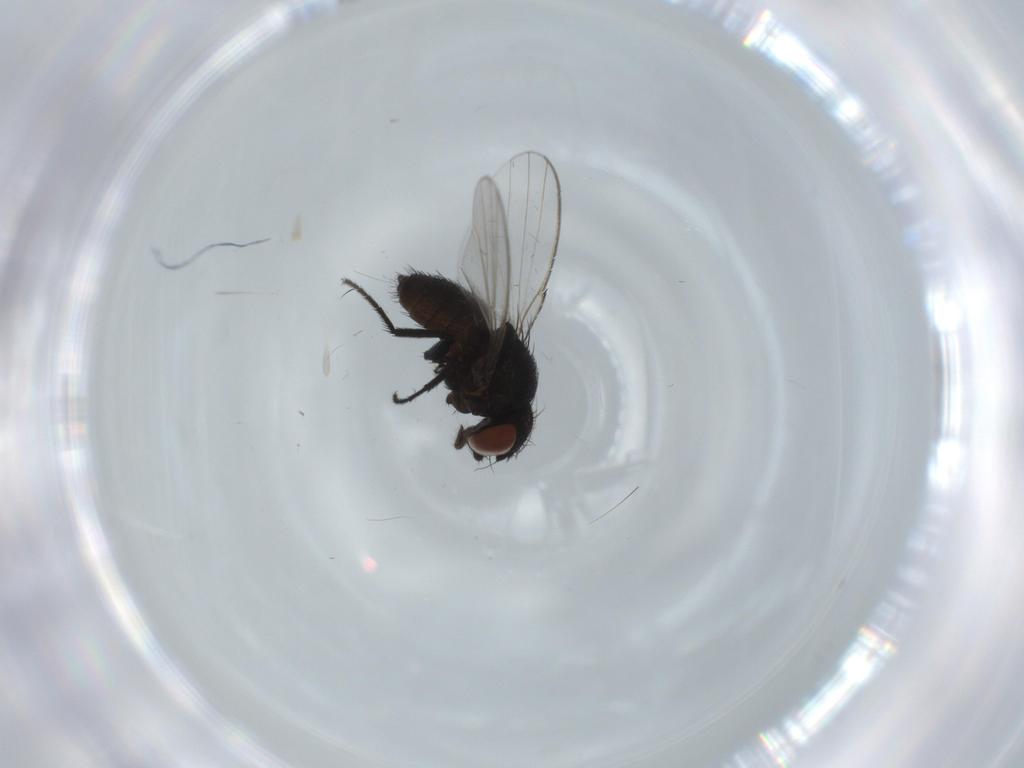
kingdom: Animalia
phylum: Arthropoda
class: Insecta
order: Diptera
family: Milichiidae
